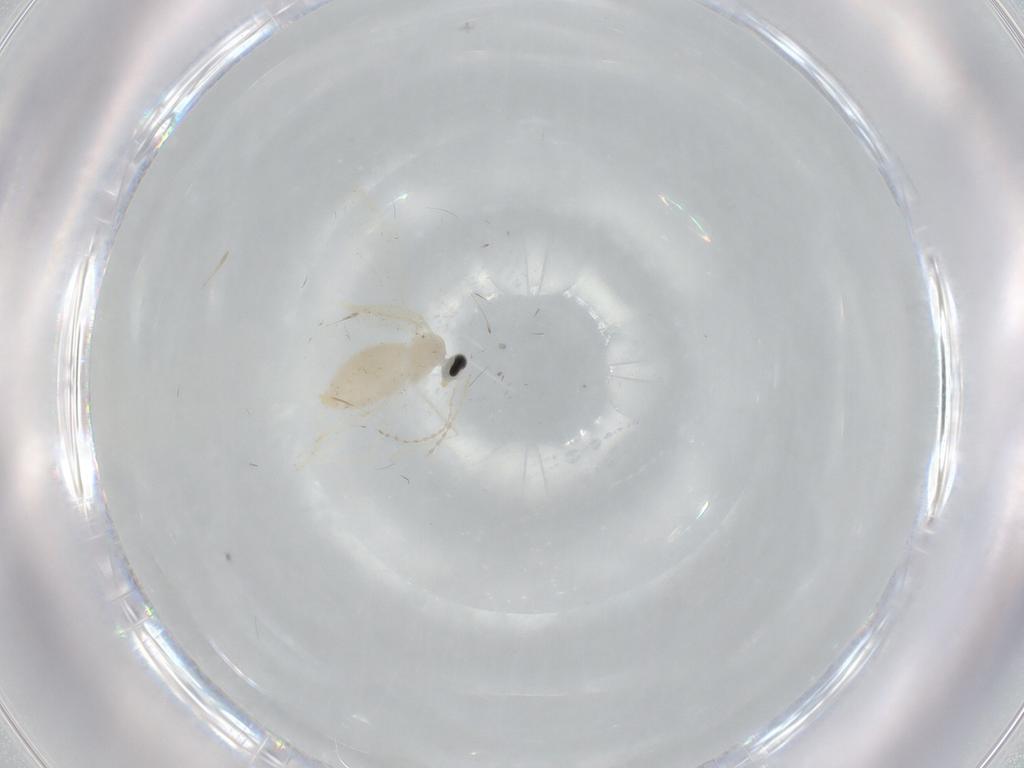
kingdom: Animalia
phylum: Arthropoda
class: Insecta
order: Diptera
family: Cecidomyiidae
